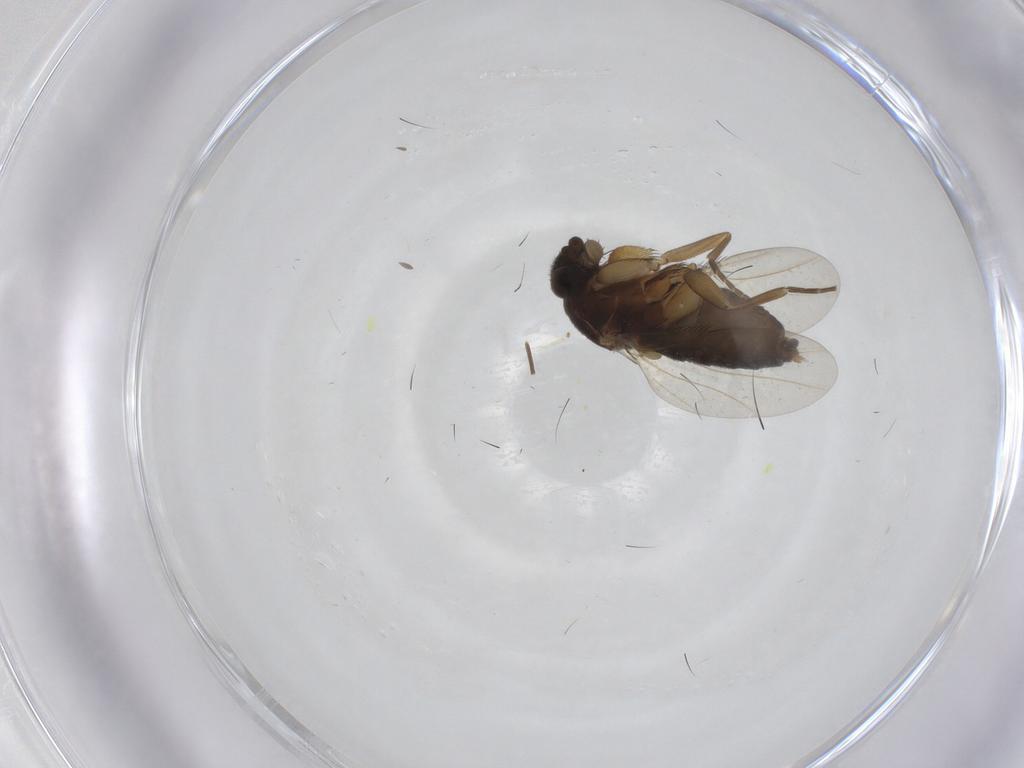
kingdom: Animalia
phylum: Arthropoda
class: Insecta
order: Diptera
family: Phoridae
